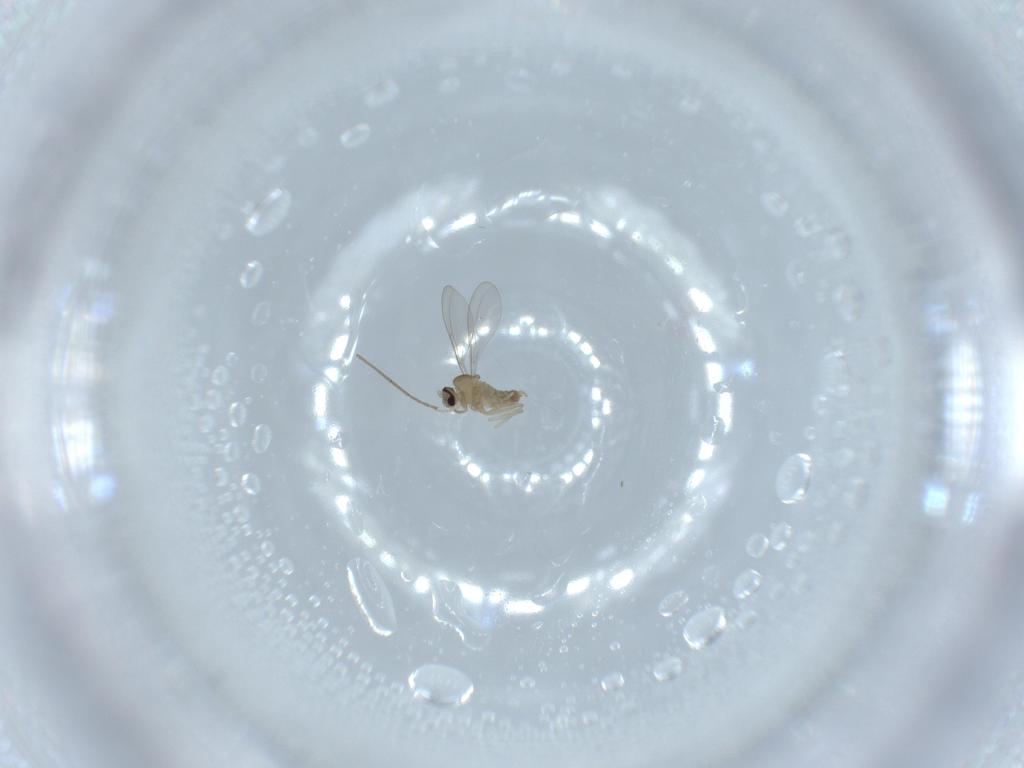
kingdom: Animalia
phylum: Arthropoda
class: Insecta
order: Diptera
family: Cecidomyiidae
